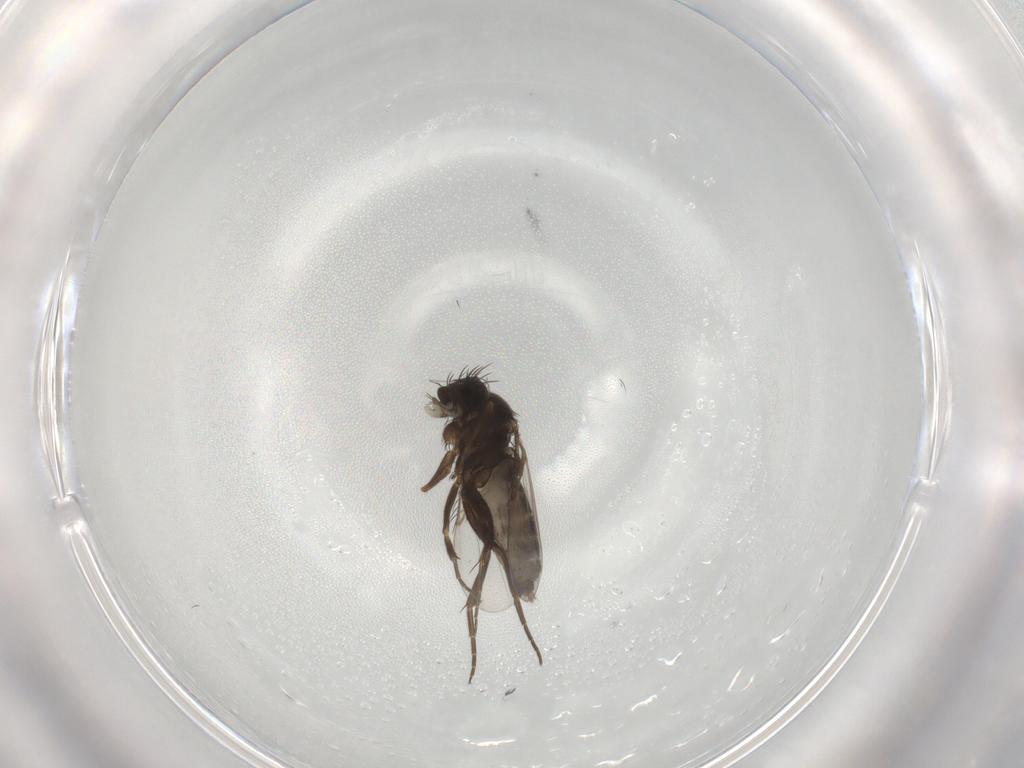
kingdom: Animalia
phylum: Arthropoda
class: Insecta
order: Diptera
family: Phoridae
